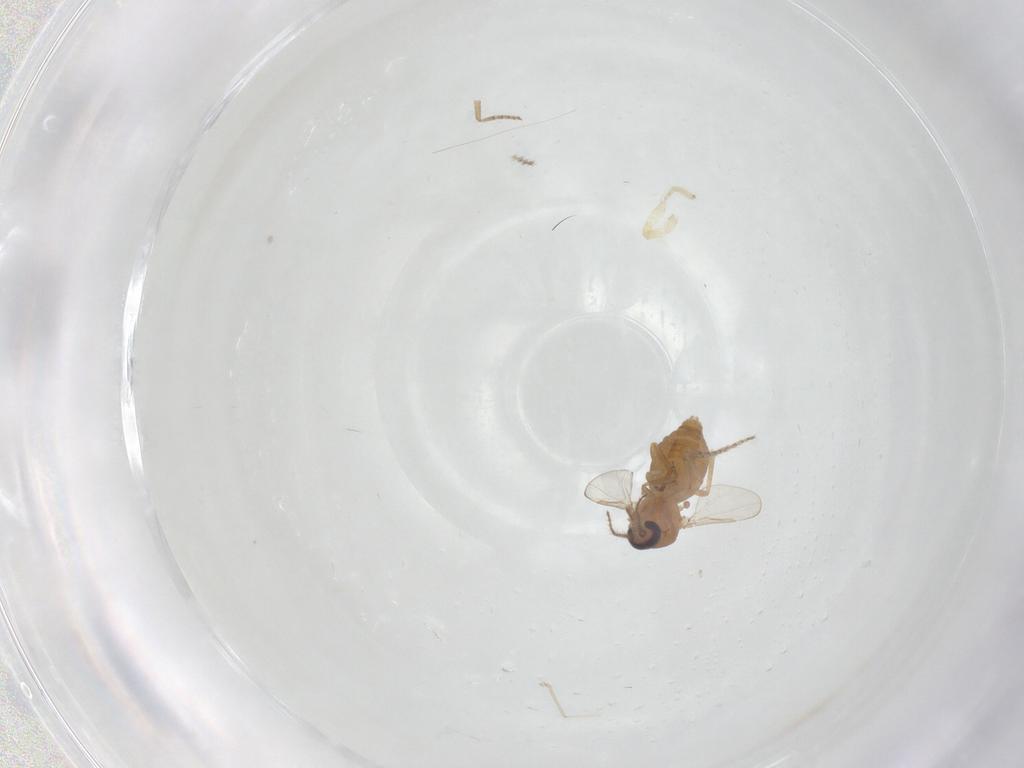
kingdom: Animalia
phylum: Arthropoda
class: Insecta
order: Diptera
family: Ceratopogonidae
